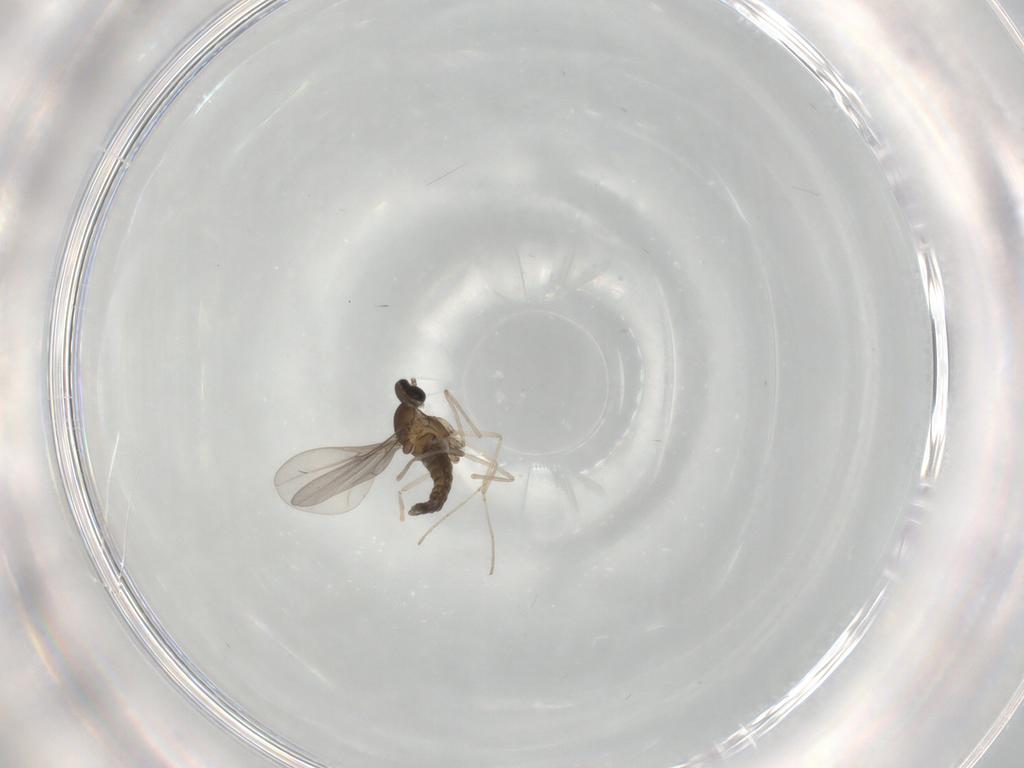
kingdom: Animalia
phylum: Arthropoda
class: Insecta
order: Diptera
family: Cecidomyiidae
